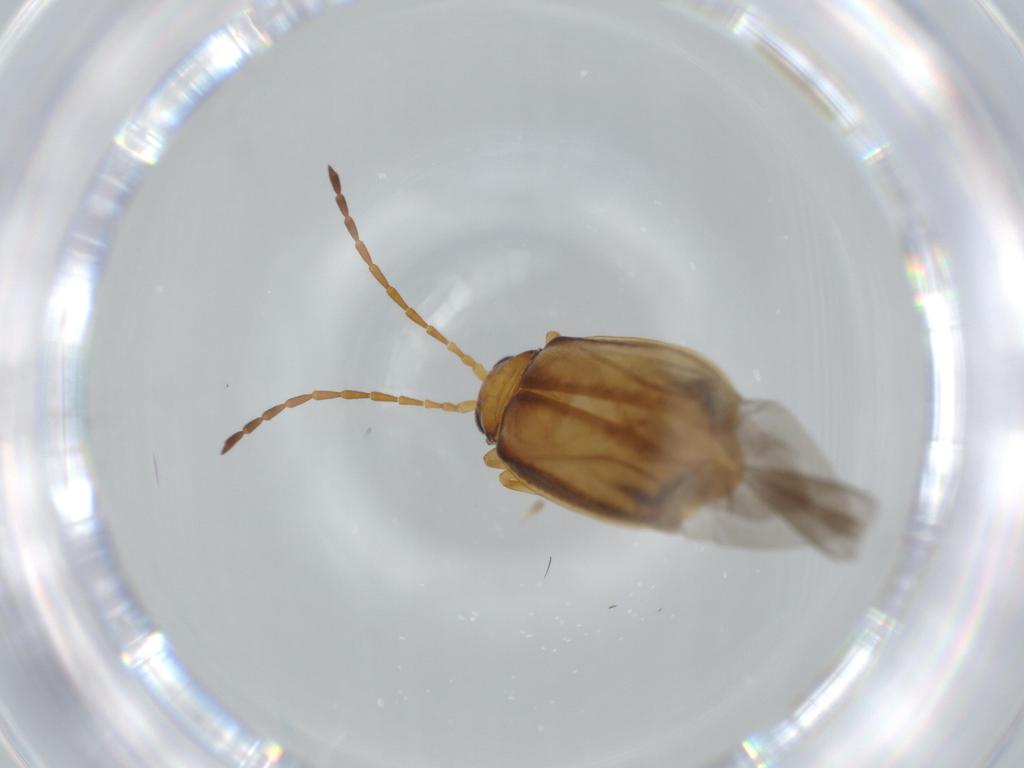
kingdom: Animalia
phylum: Arthropoda
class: Insecta
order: Coleoptera
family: Chrysomelidae
